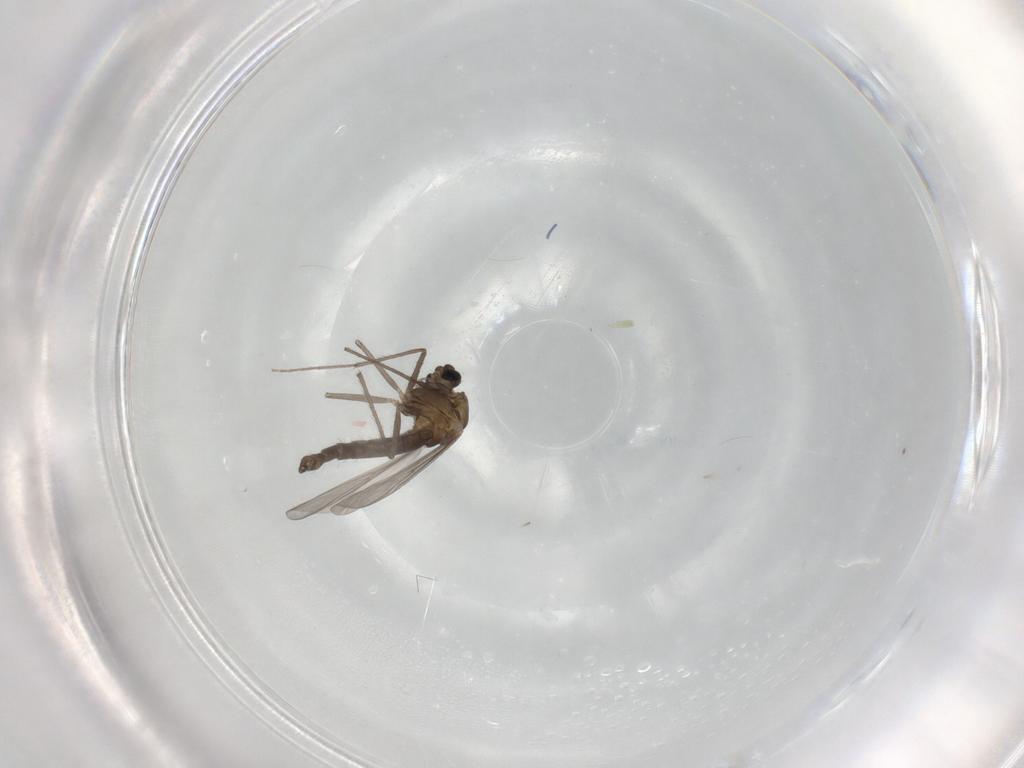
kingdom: Animalia
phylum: Arthropoda
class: Insecta
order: Diptera
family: Chironomidae
